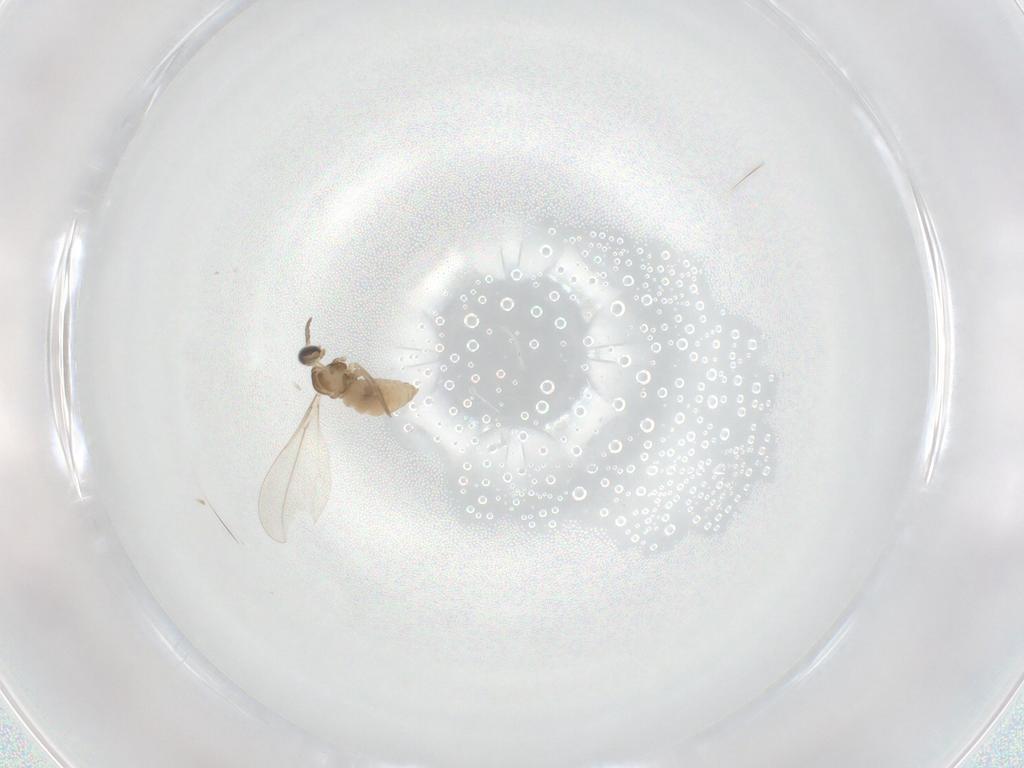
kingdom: Animalia
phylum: Arthropoda
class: Insecta
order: Diptera
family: Cecidomyiidae
